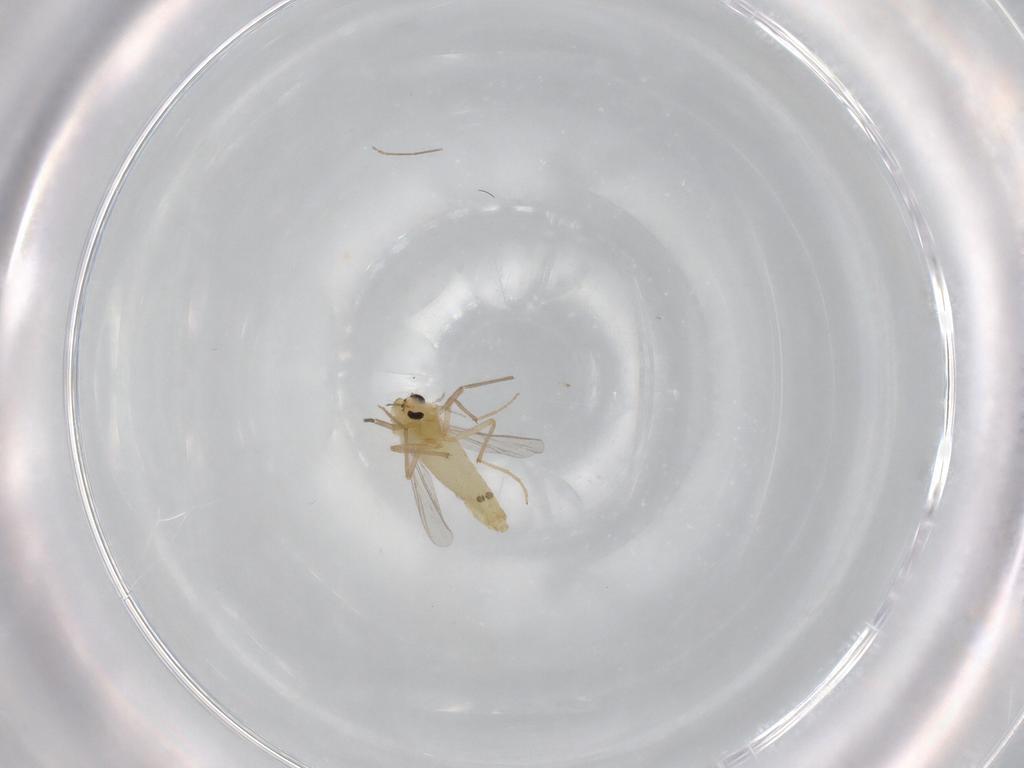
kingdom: Animalia
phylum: Arthropoda
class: Insecta
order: Diptera
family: Chironomidae
